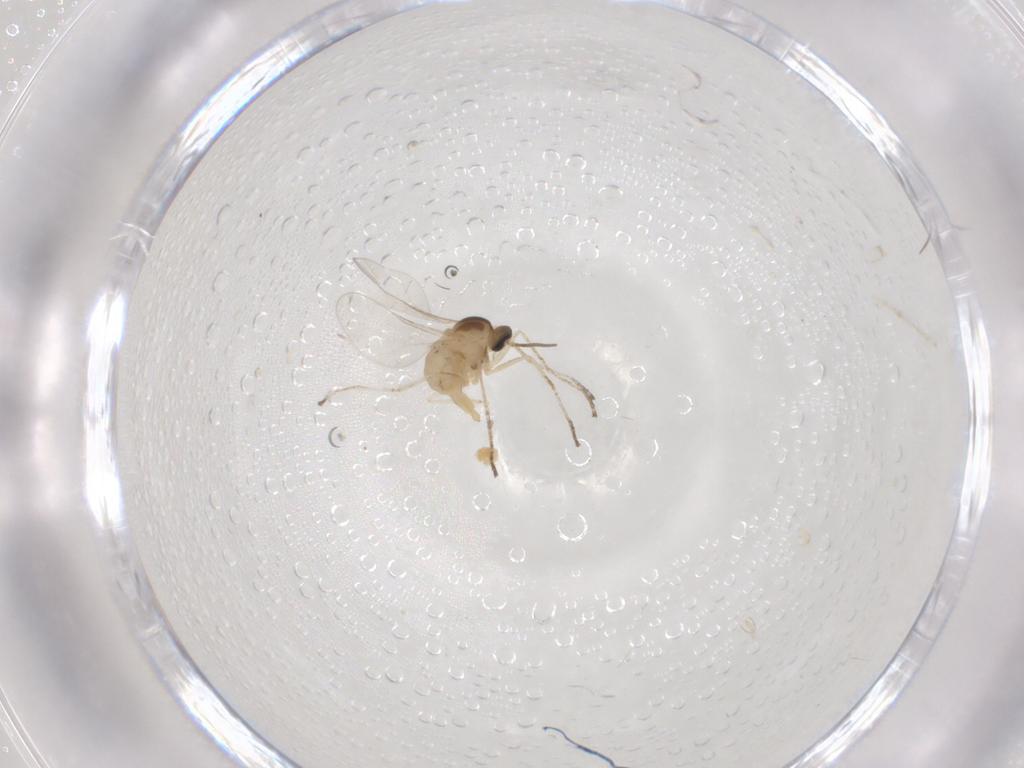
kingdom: Animalia
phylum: Arthropoda
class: Insecta
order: Diptera
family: Cecidomyiidae
